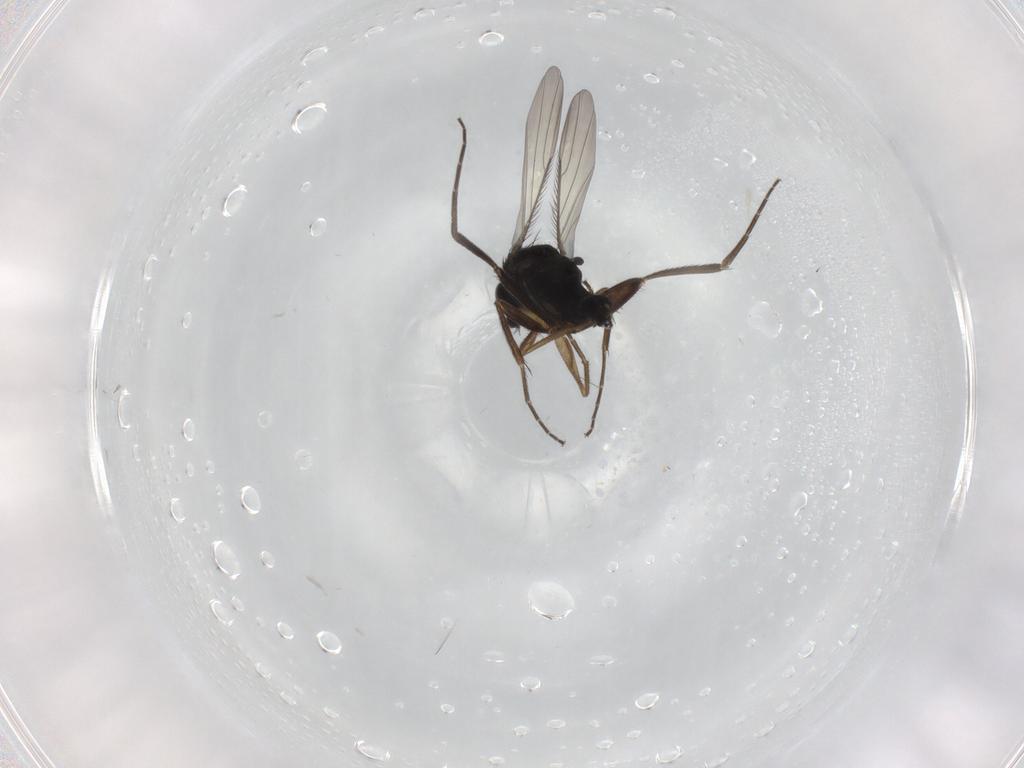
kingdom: Animalia
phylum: Arthropoda
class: Insecta
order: Diptera
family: Phoridae
